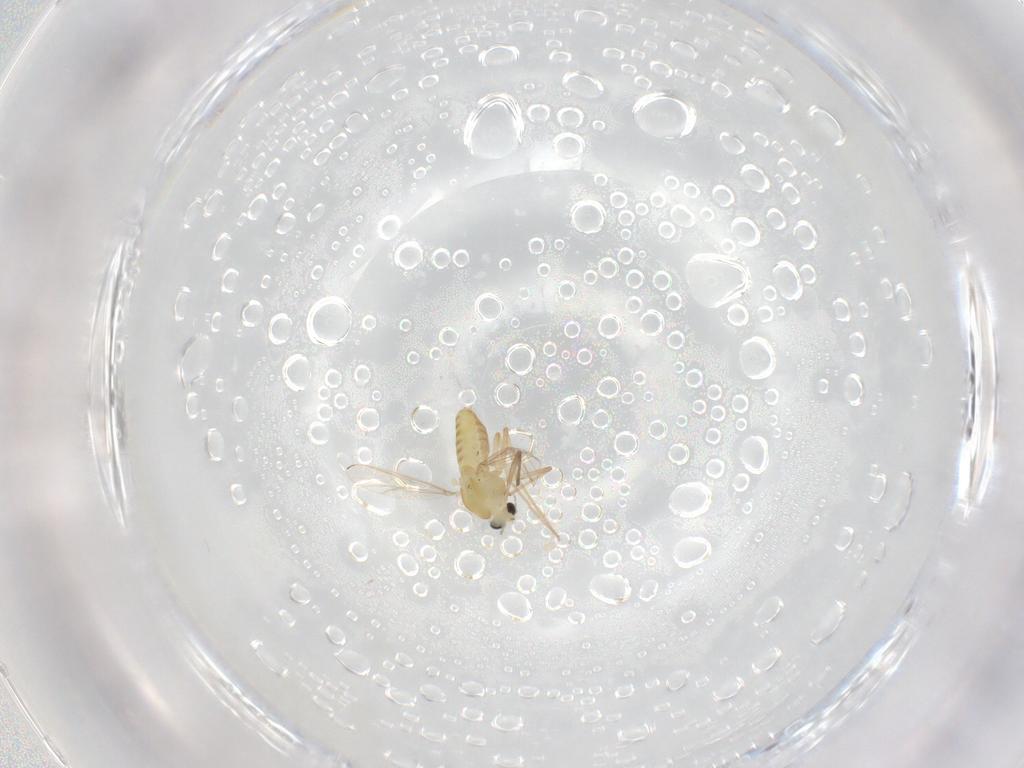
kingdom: Animalia
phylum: Arthropoda
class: Insecta
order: Diptera
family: Chironomidae
